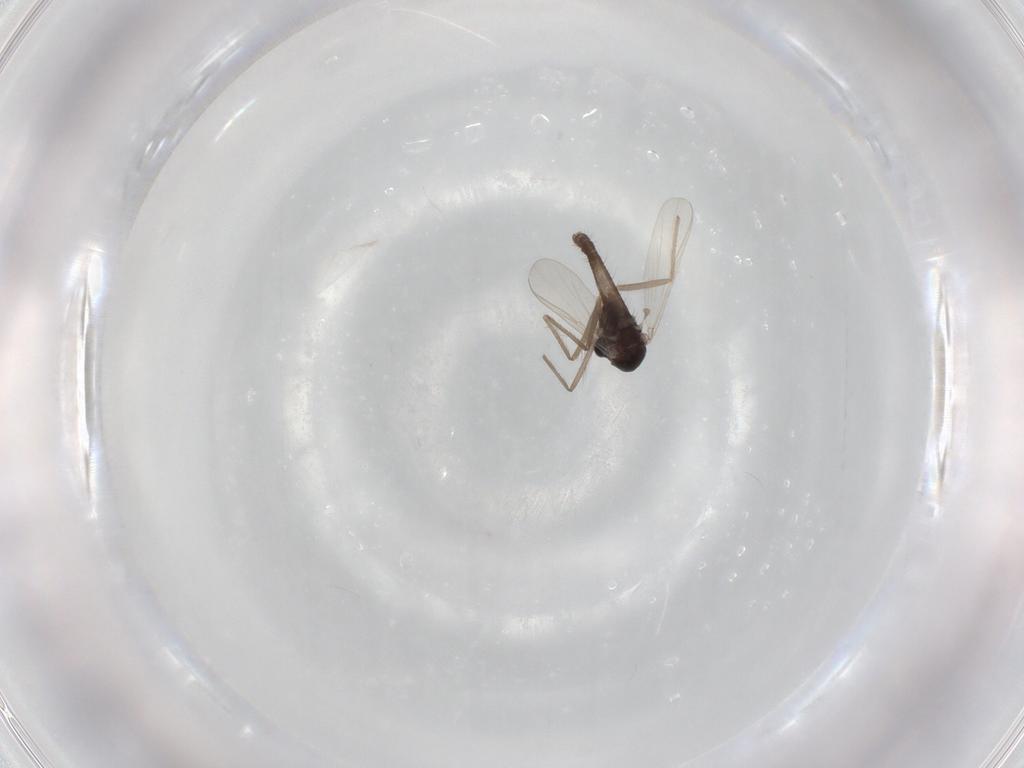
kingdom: Animalia
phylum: Arthropoda
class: Insecta
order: Diptera
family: Chironomidae
